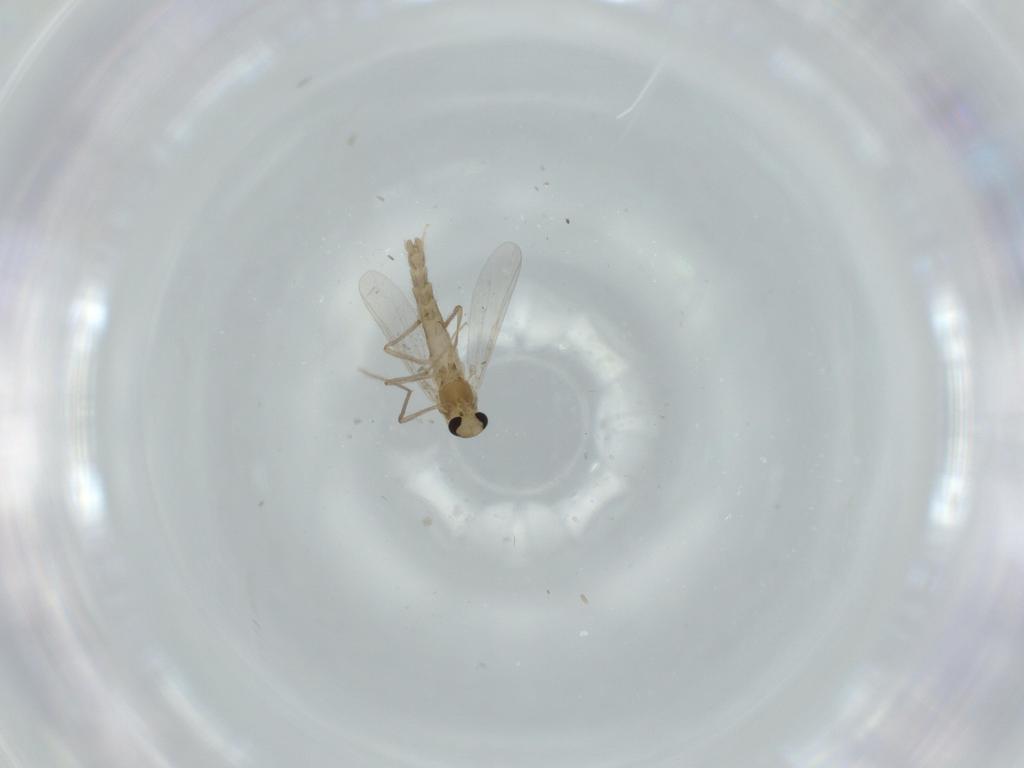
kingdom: Animalia
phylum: Arthropoda
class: Insecta
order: Diptera
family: Chironomidae
